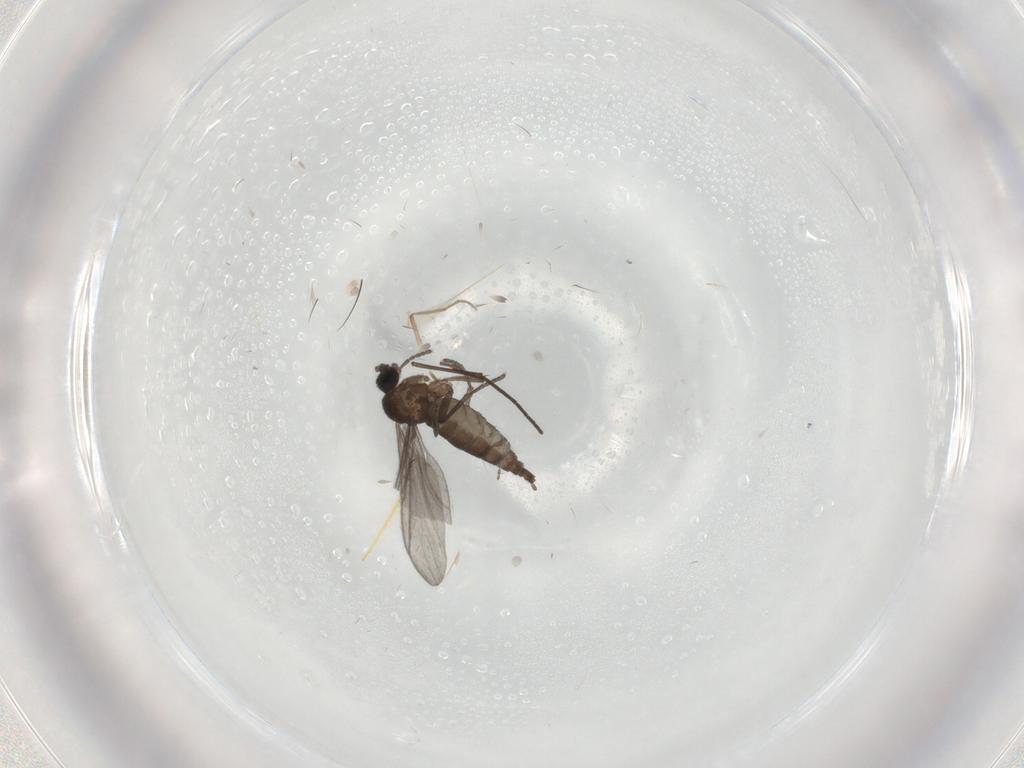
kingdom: Animalia
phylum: Arthropoda
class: Insecta
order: Diptera
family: Cecidomyiidae
